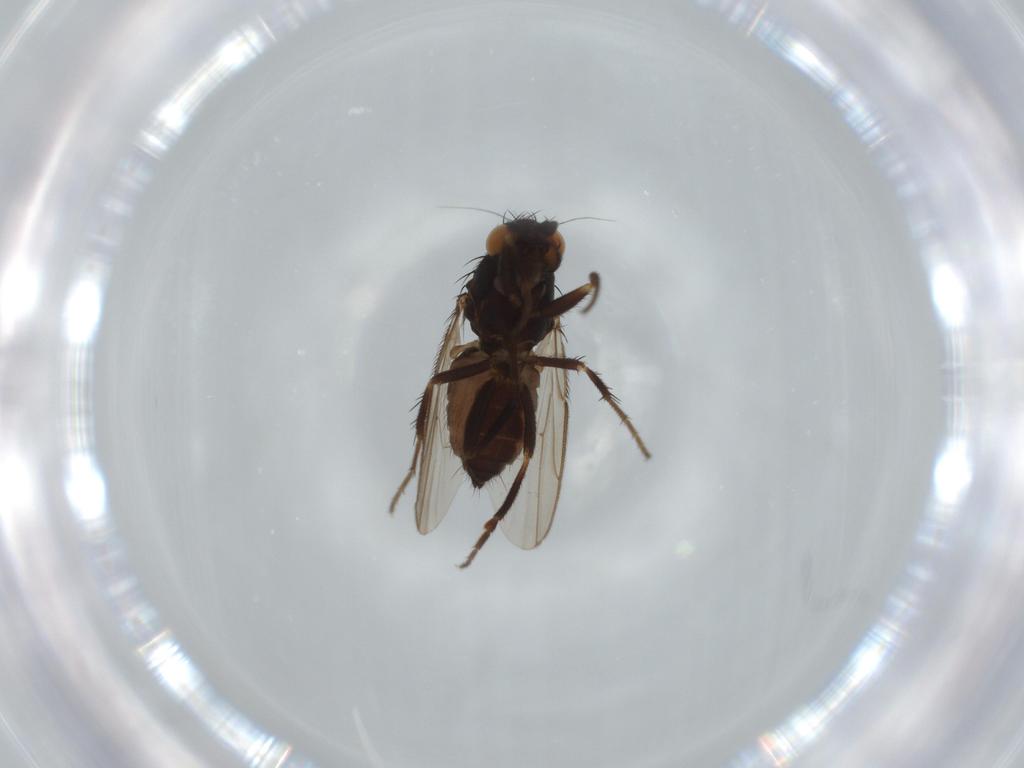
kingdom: Animalia
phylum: Arthropoda
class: Insecta
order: Diptera
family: Sphaeroceridae
